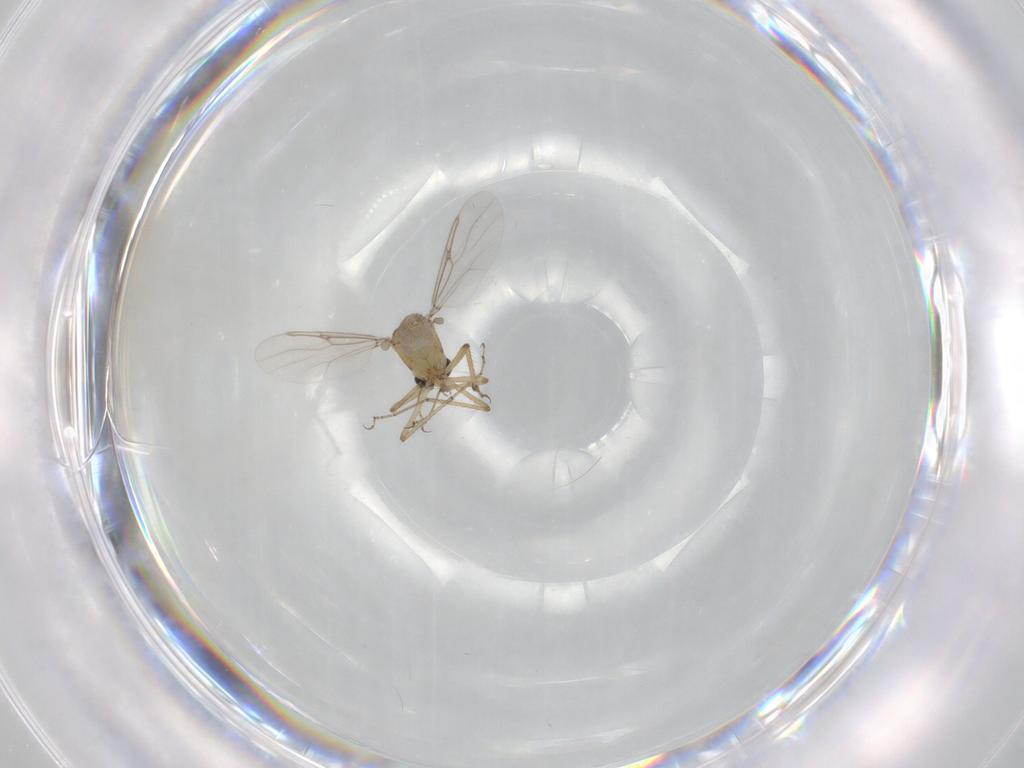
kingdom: Animalia
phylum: Arthropoda
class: Insecta
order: Diptera
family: Ceratopogonidae
